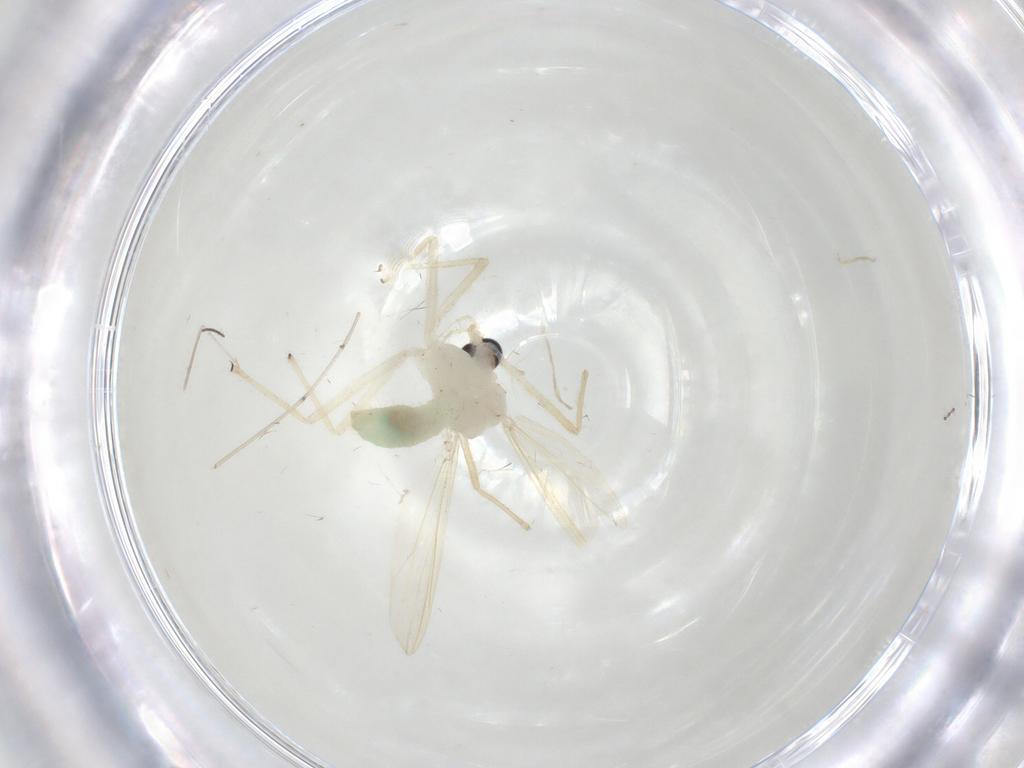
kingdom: Animalia
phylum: Arthropoda
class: Insecta
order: Diptera
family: Chironomidae
